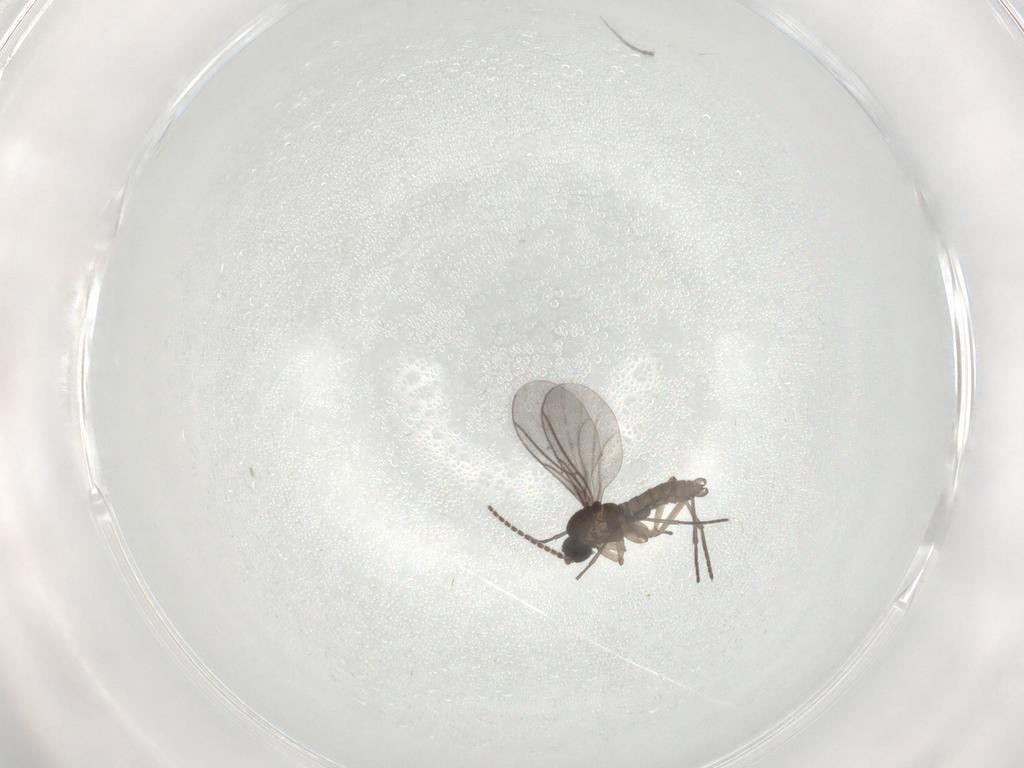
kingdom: Animalia
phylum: Arthropoda
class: Insecta
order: Diptera
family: Phoridae
